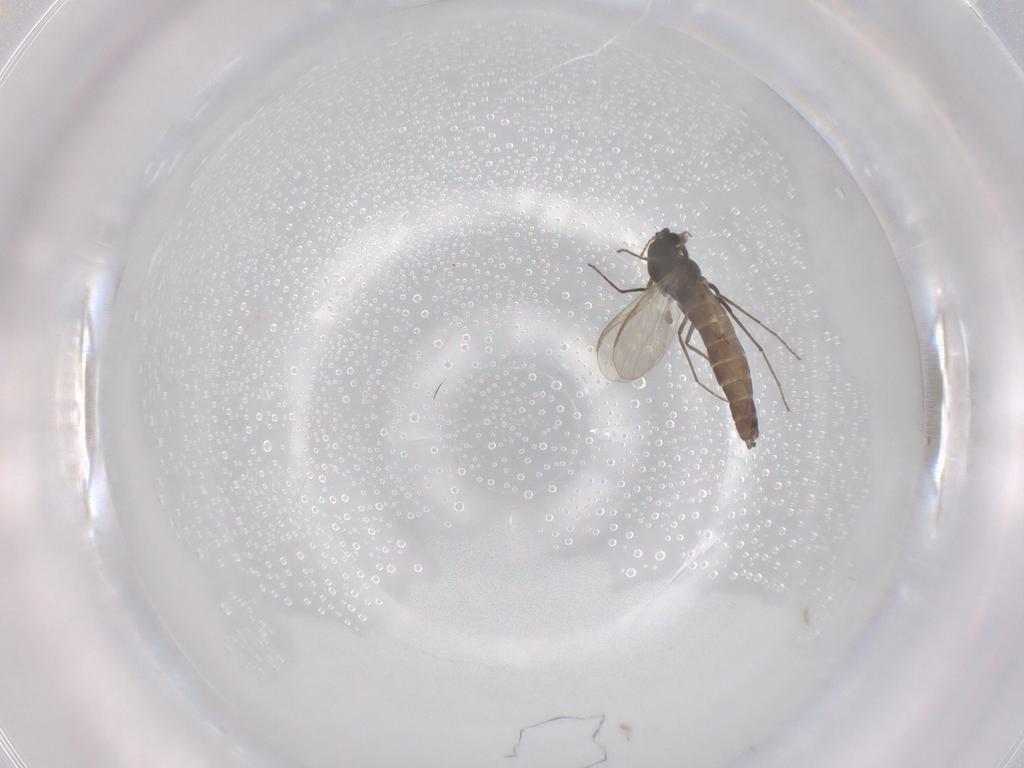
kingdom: Animalia
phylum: Arthropoda
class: Insecta
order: Diptera
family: Chironomidae
